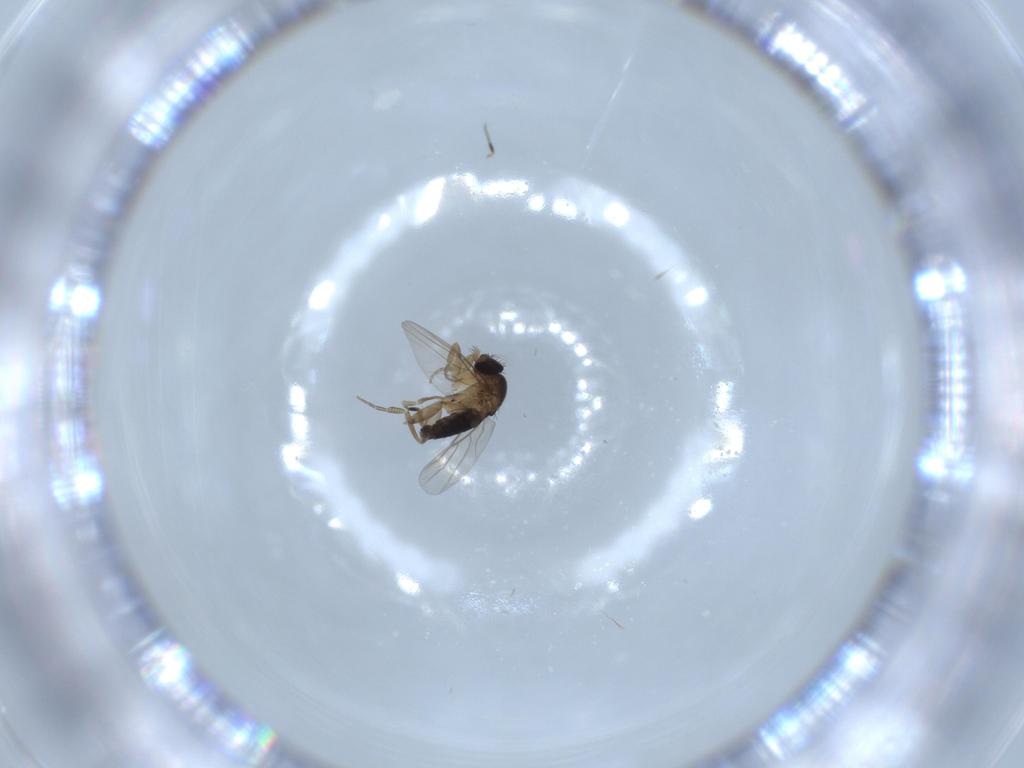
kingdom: Animalia
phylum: Arthropoda
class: Insecta
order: Diptera
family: Phoridae
